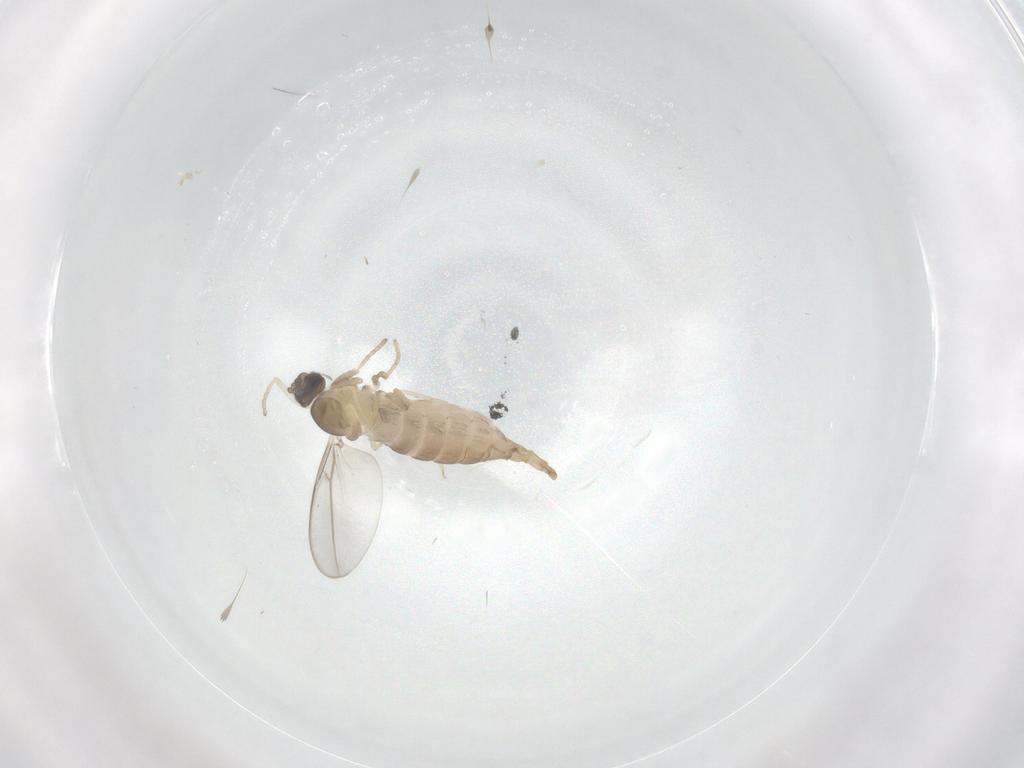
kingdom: Animalia
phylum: Arthropoda
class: Insecta
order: Diptera
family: Cecidomyiidae
